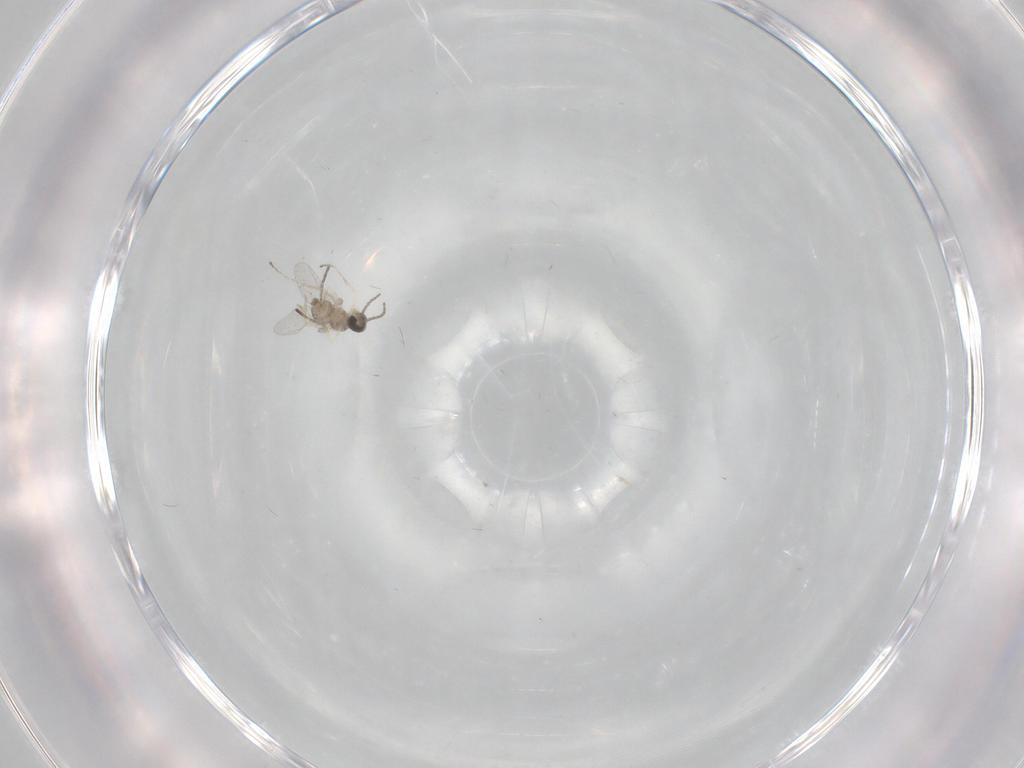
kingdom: Animalia
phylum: Arthropoda
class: Insecta
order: Diptera
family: Cecidomyiidae
